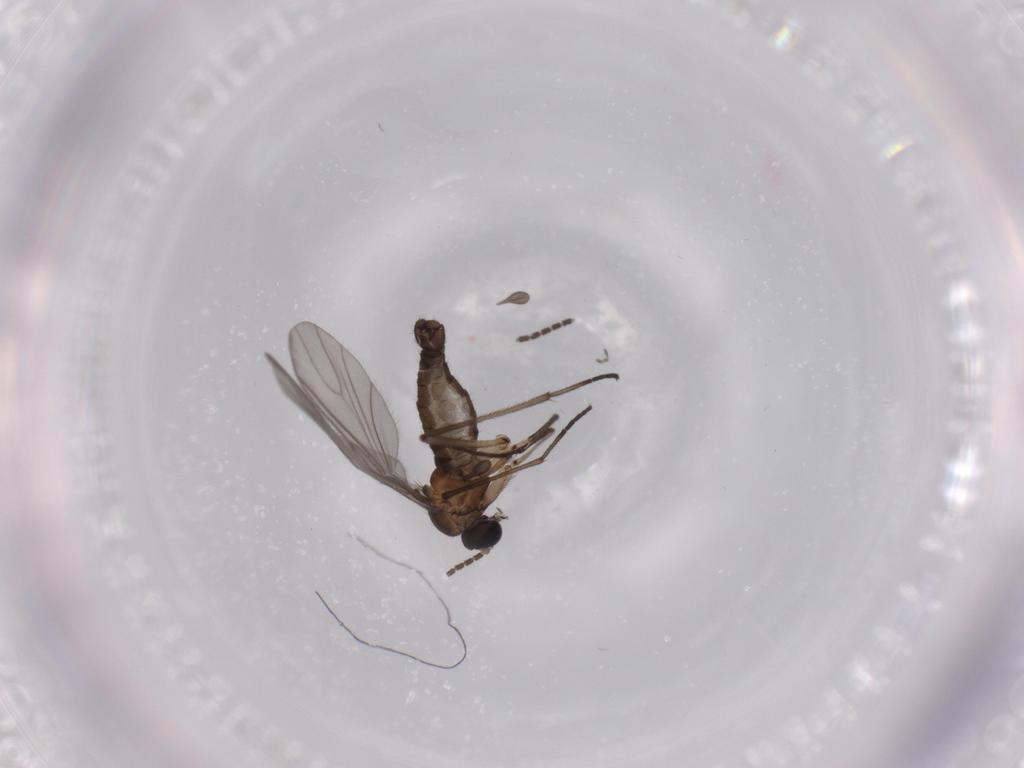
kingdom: Animalia
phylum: Arthropoda
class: Insecta
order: Diptera
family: Sciaridae
